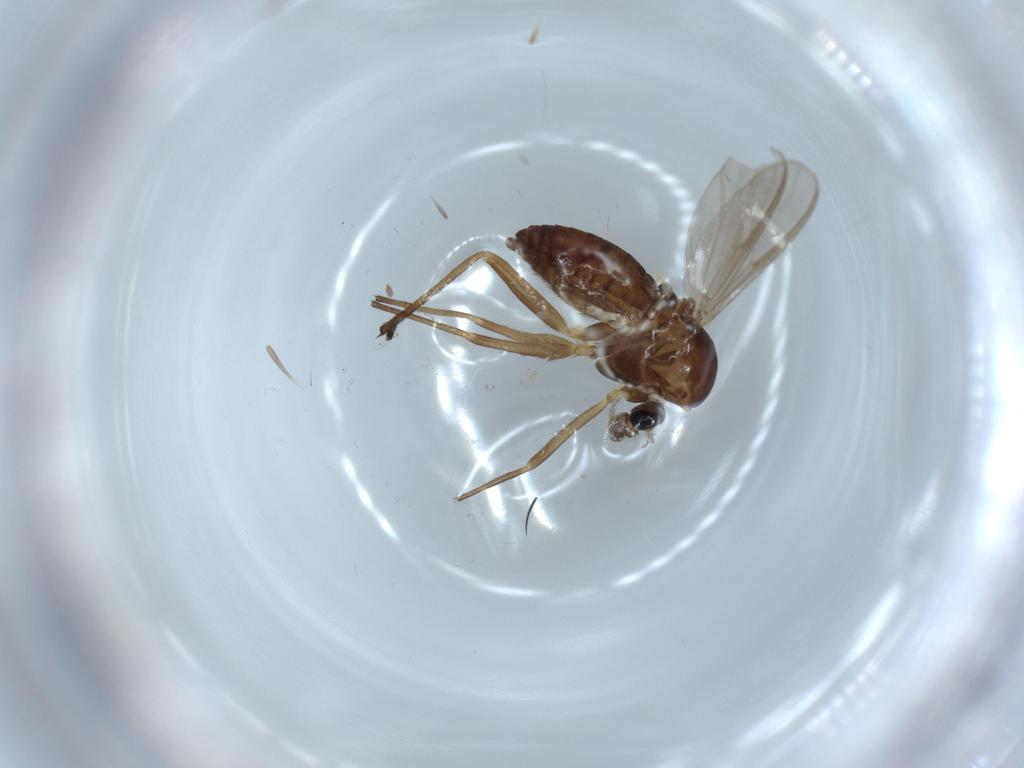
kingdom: Animalia
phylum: Arthropoda
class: Insecta
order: Diptera
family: Chironomidae
